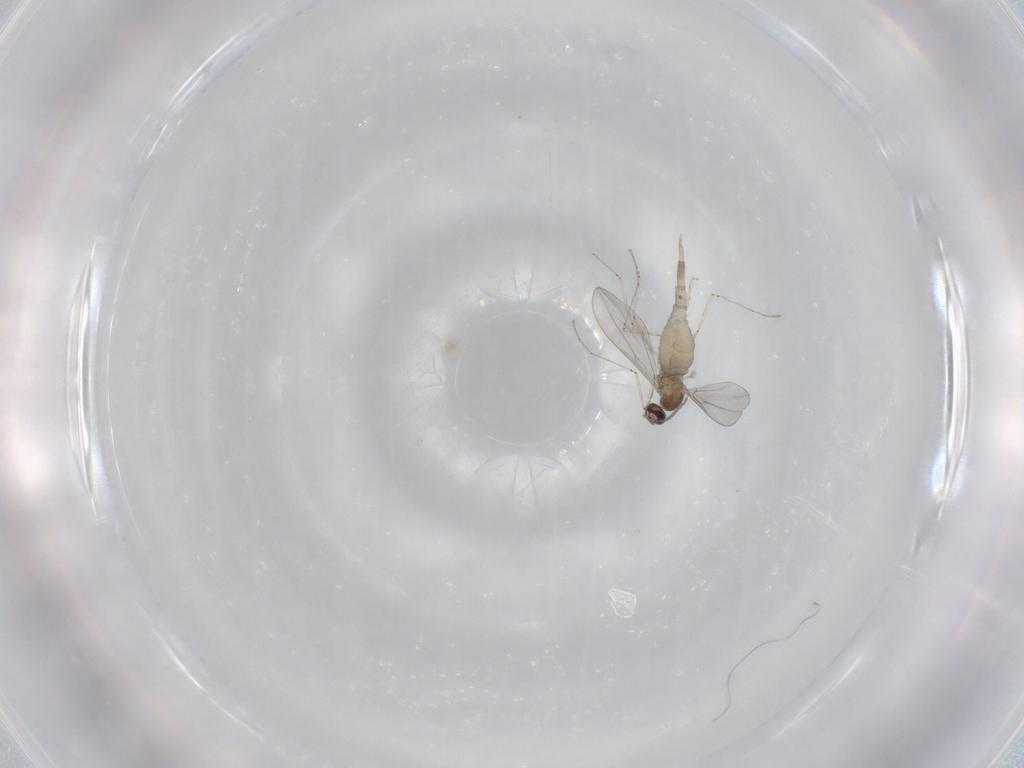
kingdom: Animalia
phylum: Arthropoda
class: Insecta
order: Diptera
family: Cecidomyiidae
